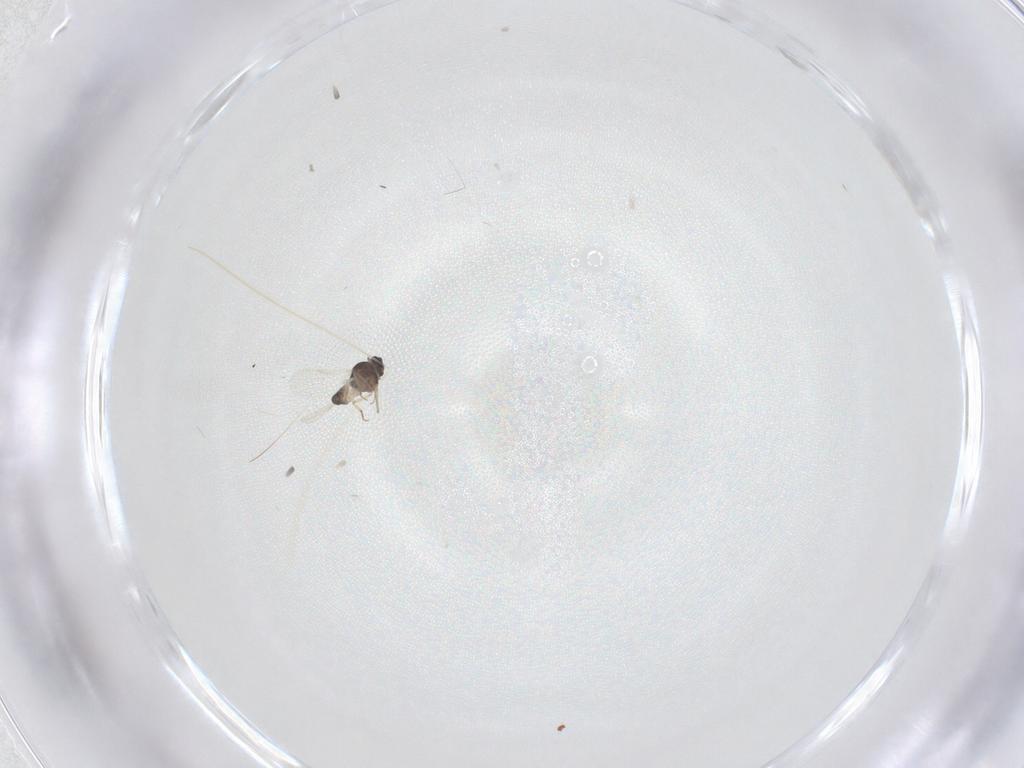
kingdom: Animalia
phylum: Arthropoda
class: Insecta
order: Diptera
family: Ceratopogonidae
